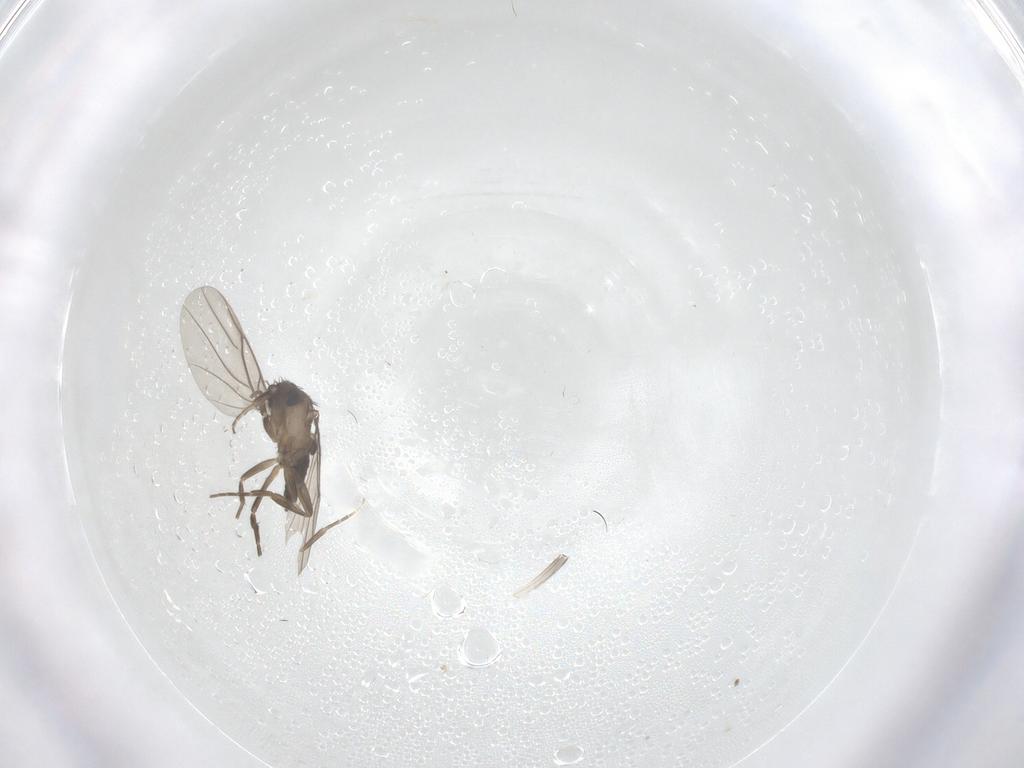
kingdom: Animalia
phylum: Arthropoda
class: Insecta
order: Diptera
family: Phoridae
